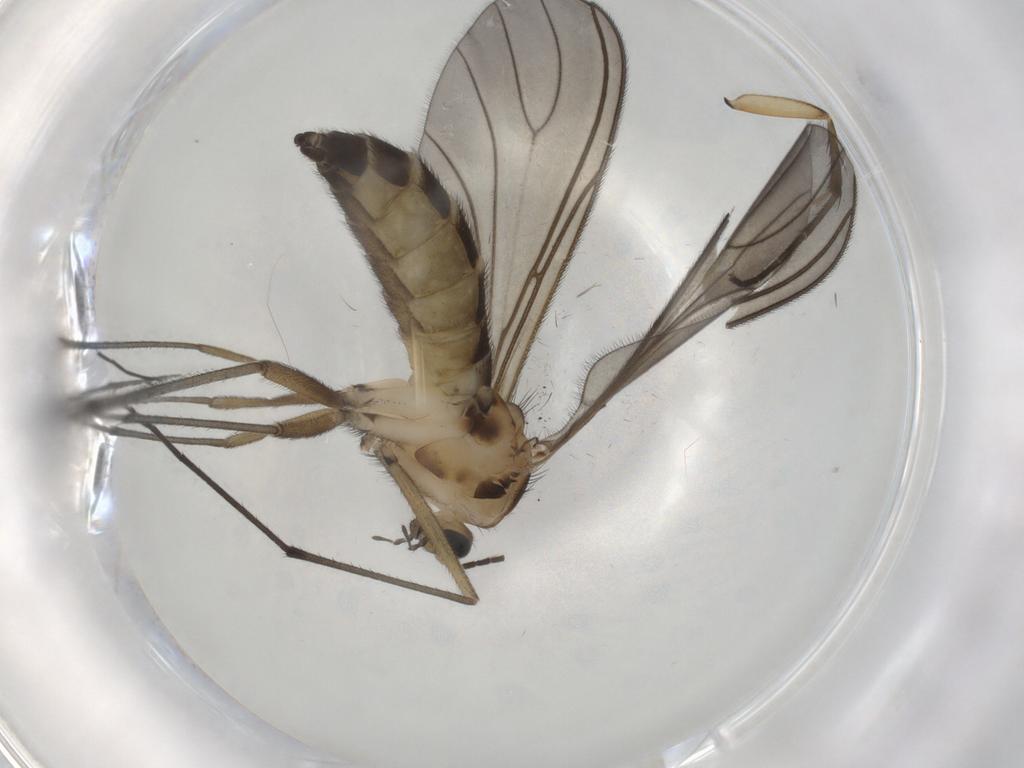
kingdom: Animalia
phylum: Arthropoda
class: Insecta
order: Diptera
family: Sciaridae
